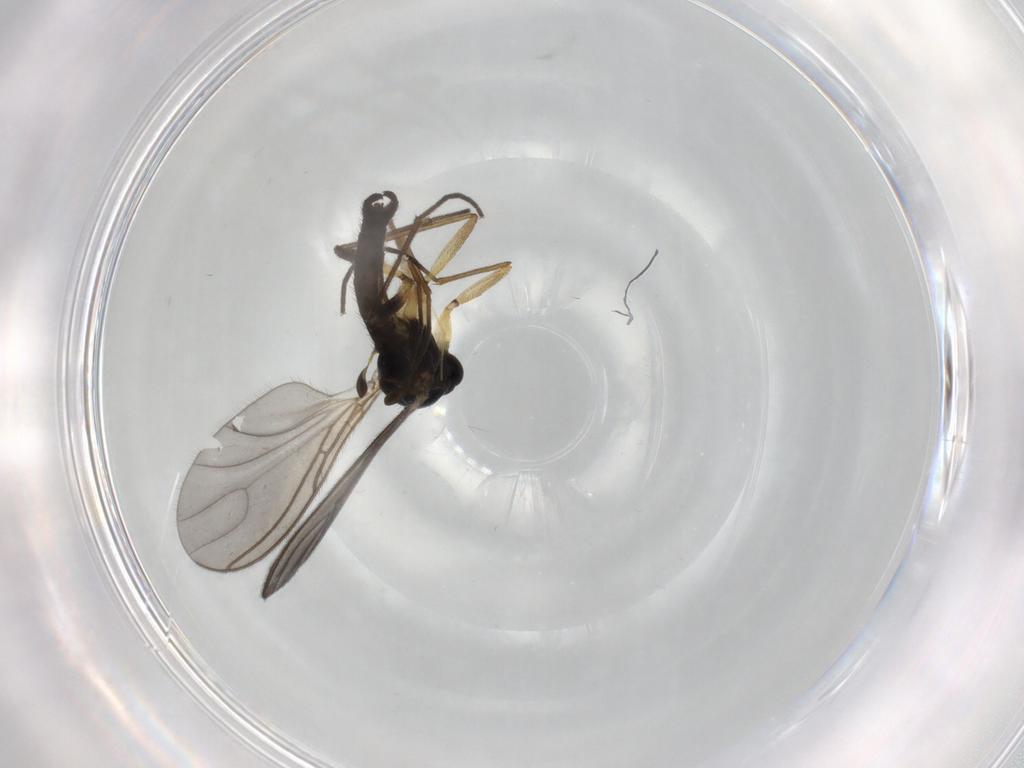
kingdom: Animalia
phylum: Arthropoda
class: Insecta
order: Diptera
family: Sciaridae
